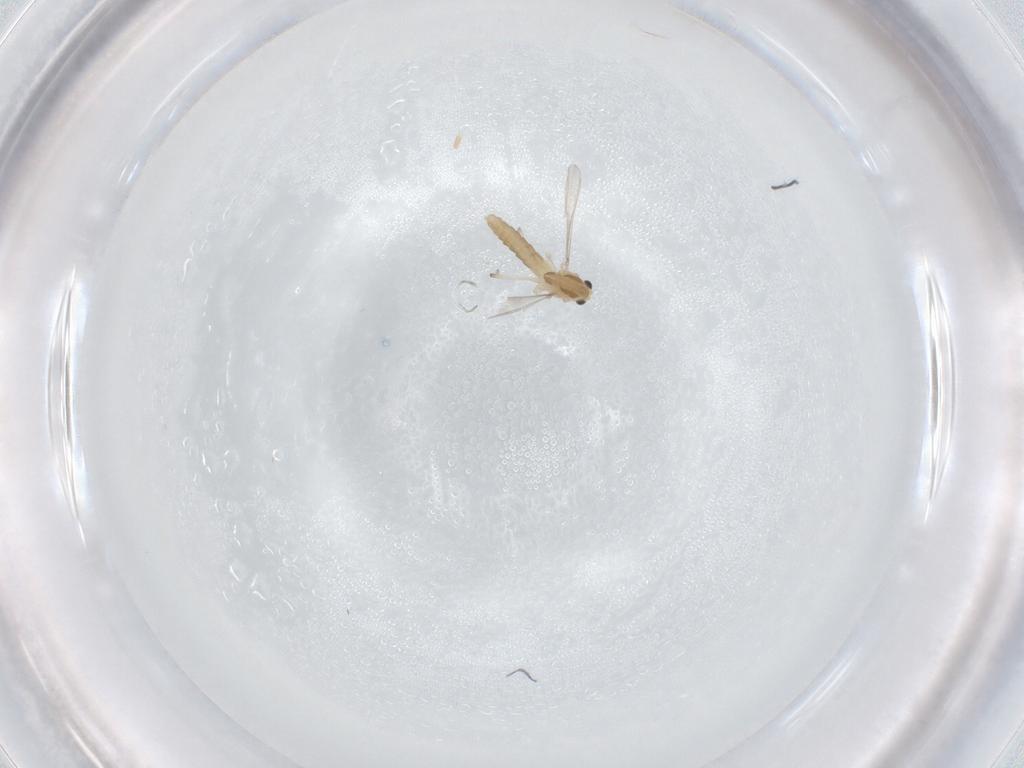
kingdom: Animalia
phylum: Arthropoda
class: Insecta
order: Diptera
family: Chironomidae
